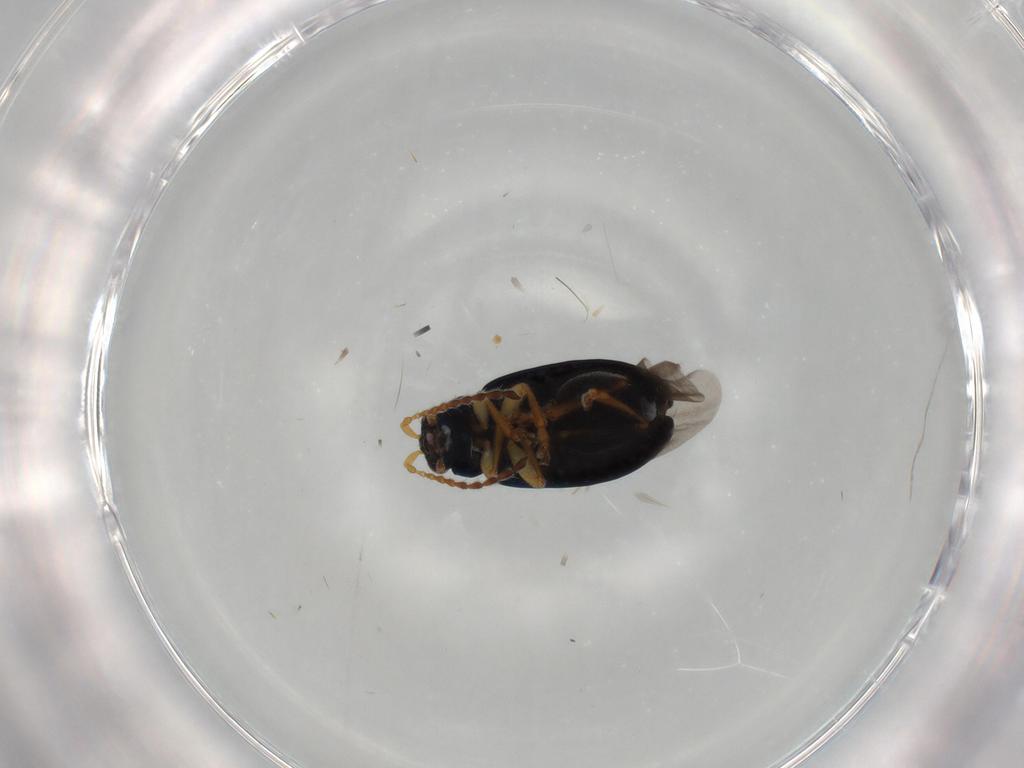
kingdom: Animalia
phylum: Arthropoda
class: Insecta
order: Coleoptera
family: Chrysomelidae
